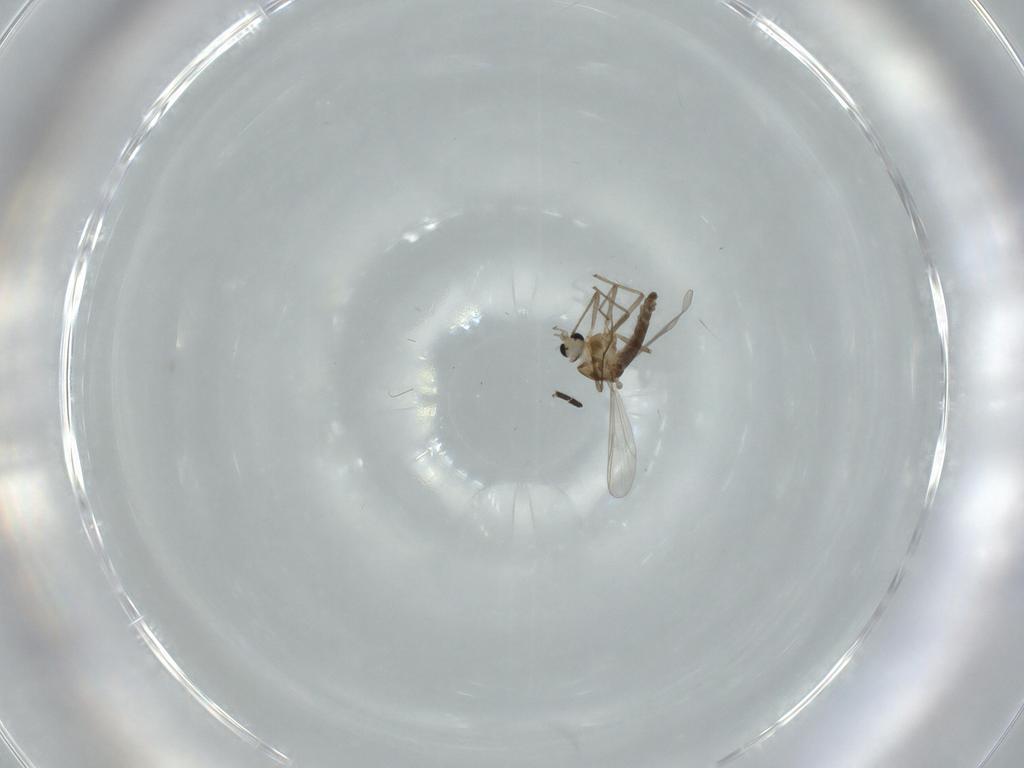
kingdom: Animalia
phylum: Arthropoda
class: Insecta
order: Diptera
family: Chironomidae
